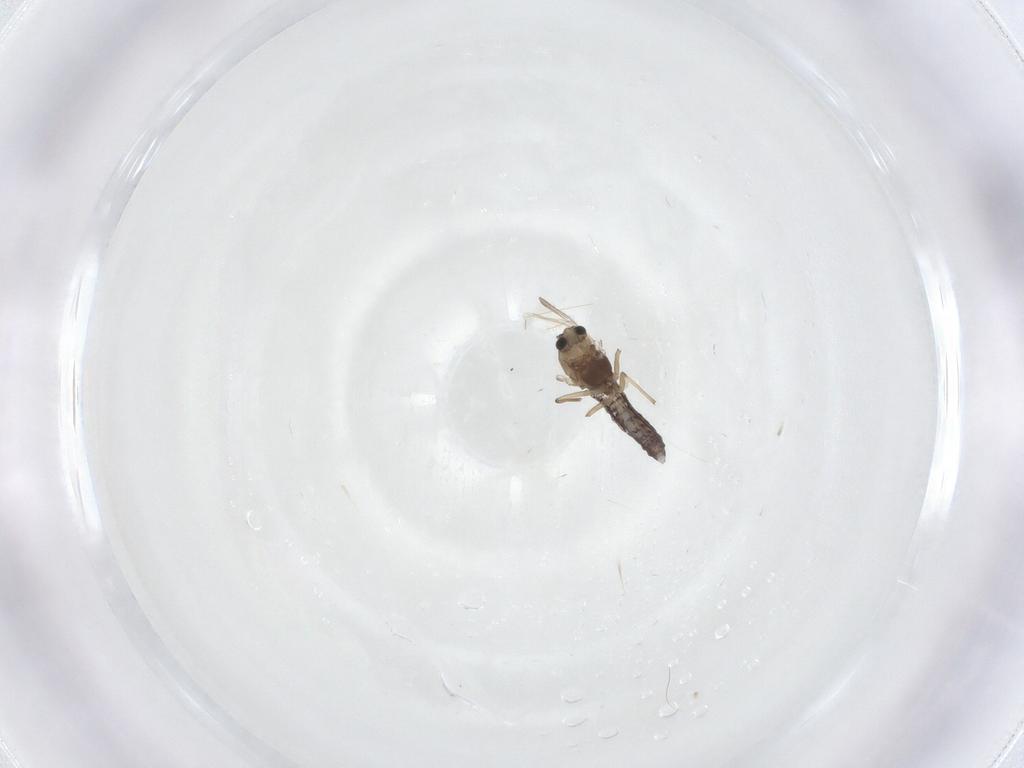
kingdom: Animalia
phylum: Arthropoda
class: Insecta
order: Diptera
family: Chironomidae
